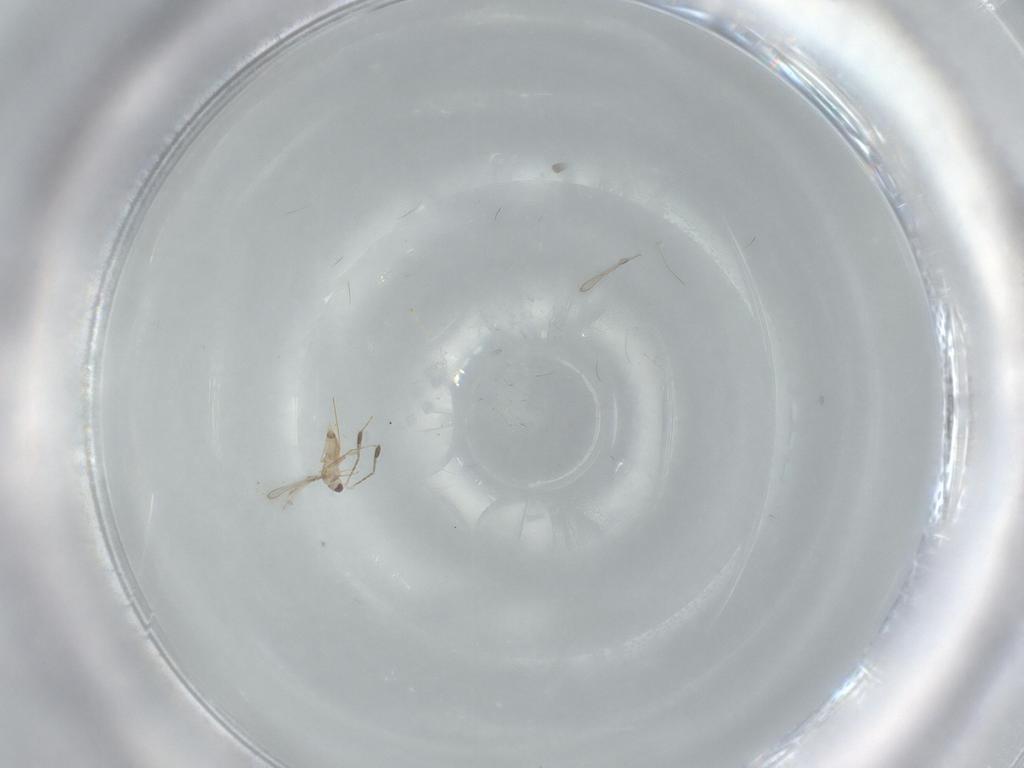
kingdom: Animalia
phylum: Arthropoda
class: Insecta
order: Hymenoptera
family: Mymaridae
